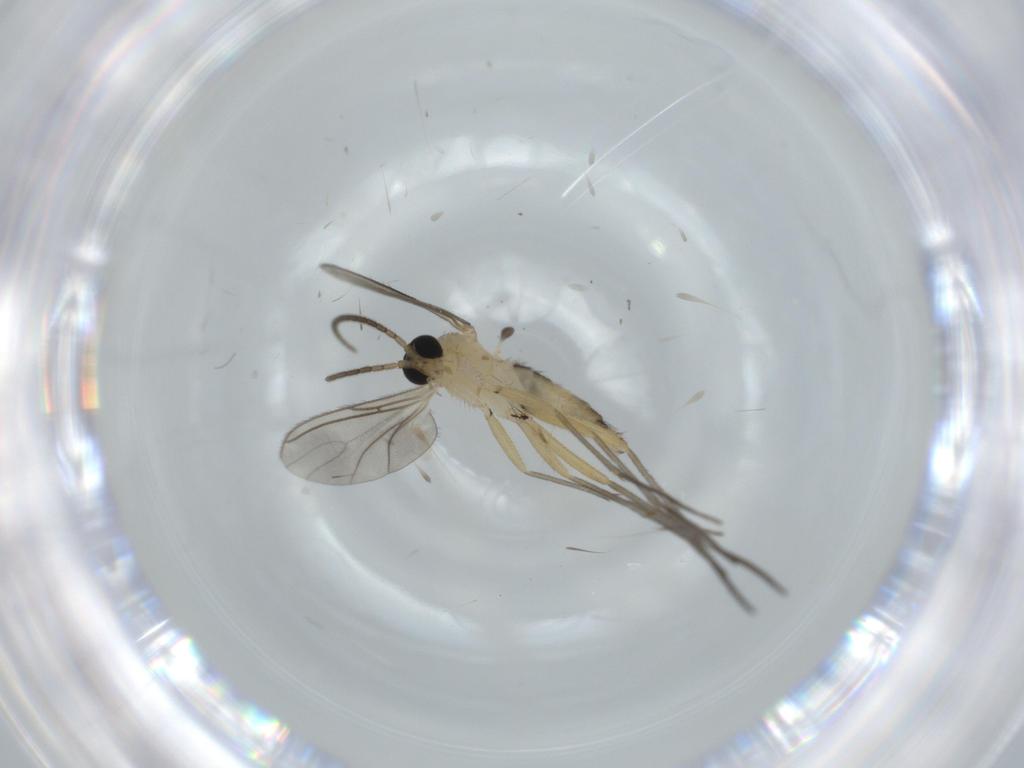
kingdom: Animalia
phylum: Arthropoda
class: Insecta
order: Diptera
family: Sciaridae
